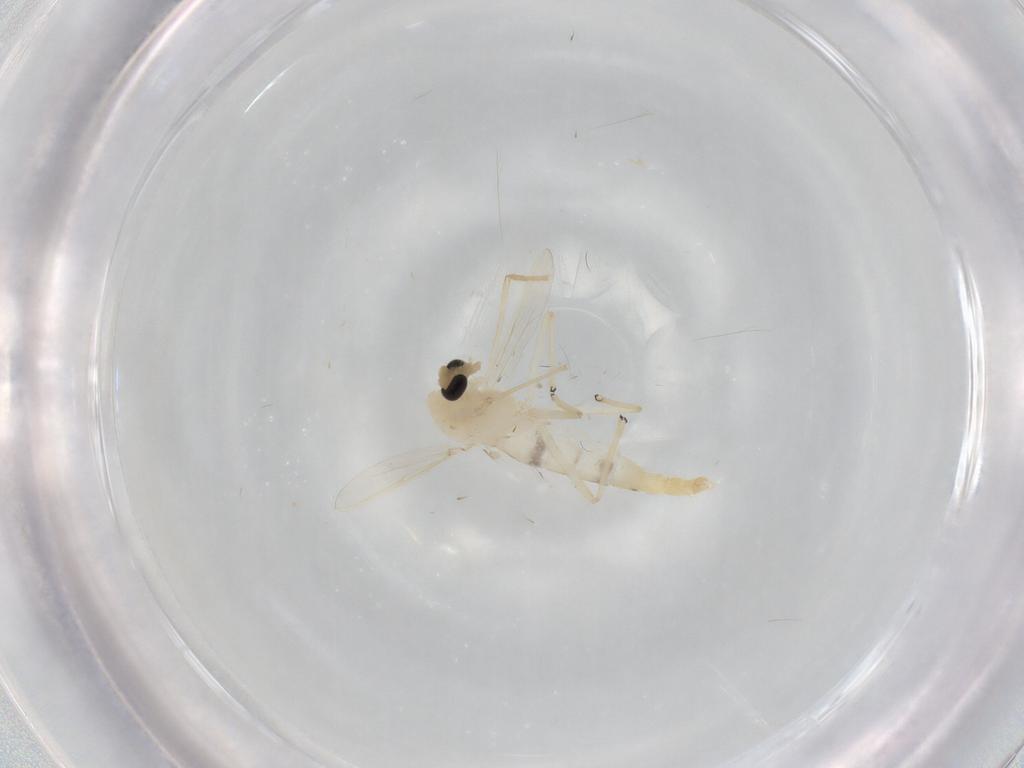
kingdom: Animalia
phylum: Arthropoda
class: Insecta
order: Diptera
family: Chironomidae
